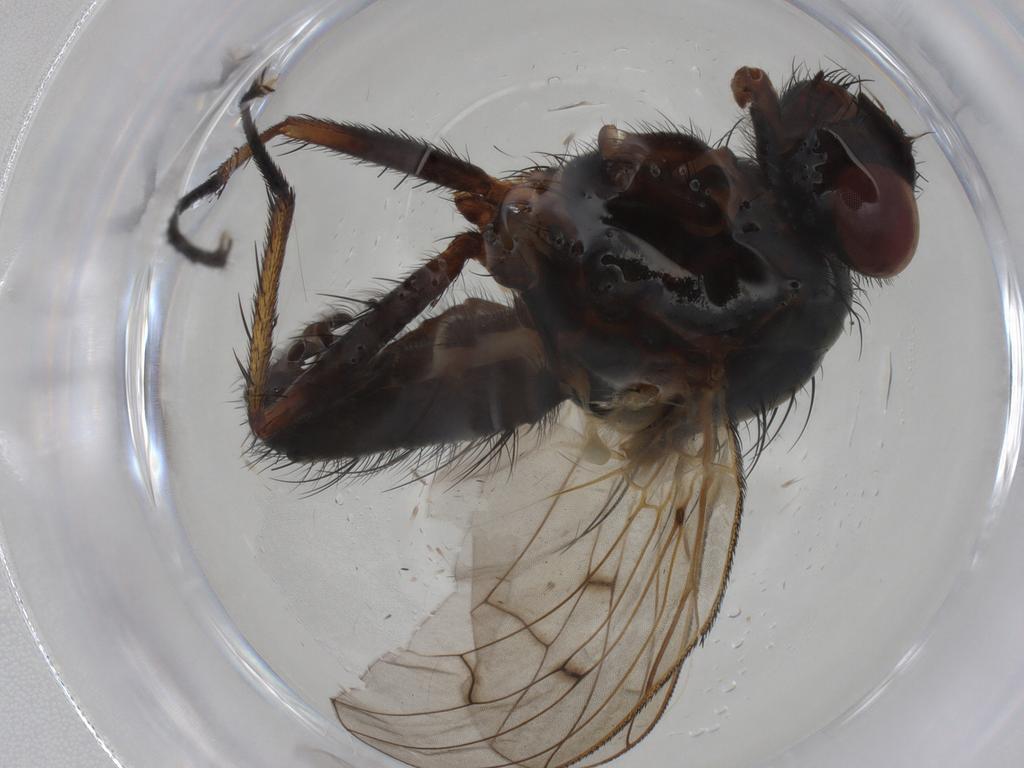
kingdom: Animalia
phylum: Arthropoda
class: Insecta
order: Diptera
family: Anthomyiidae
